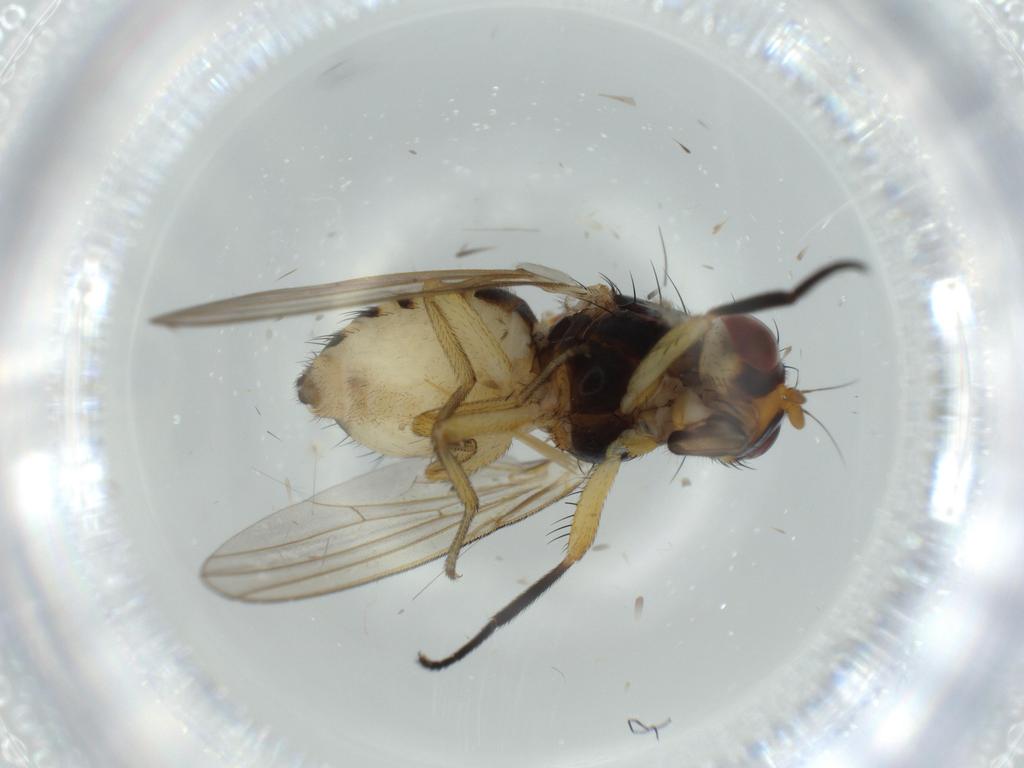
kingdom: Animalia
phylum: Arthropoda
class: Insecta
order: Diptera
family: Lauxaniidae
